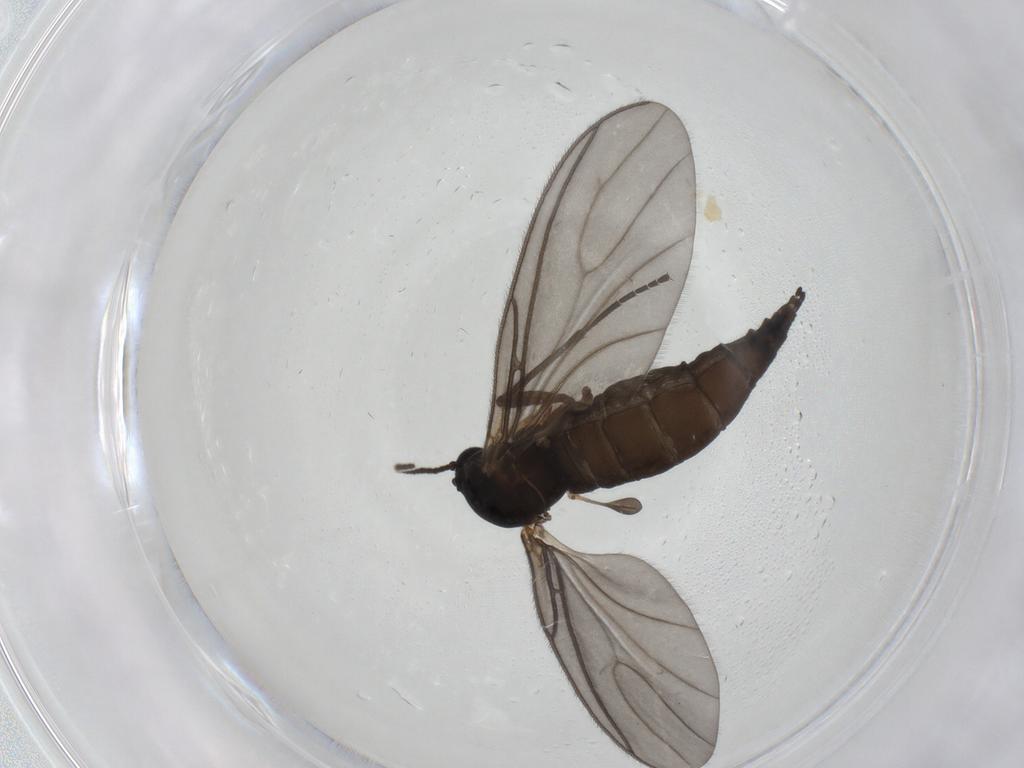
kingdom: Animalia
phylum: Arthropoda
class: Insecta
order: Diptera
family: Sciaridae
